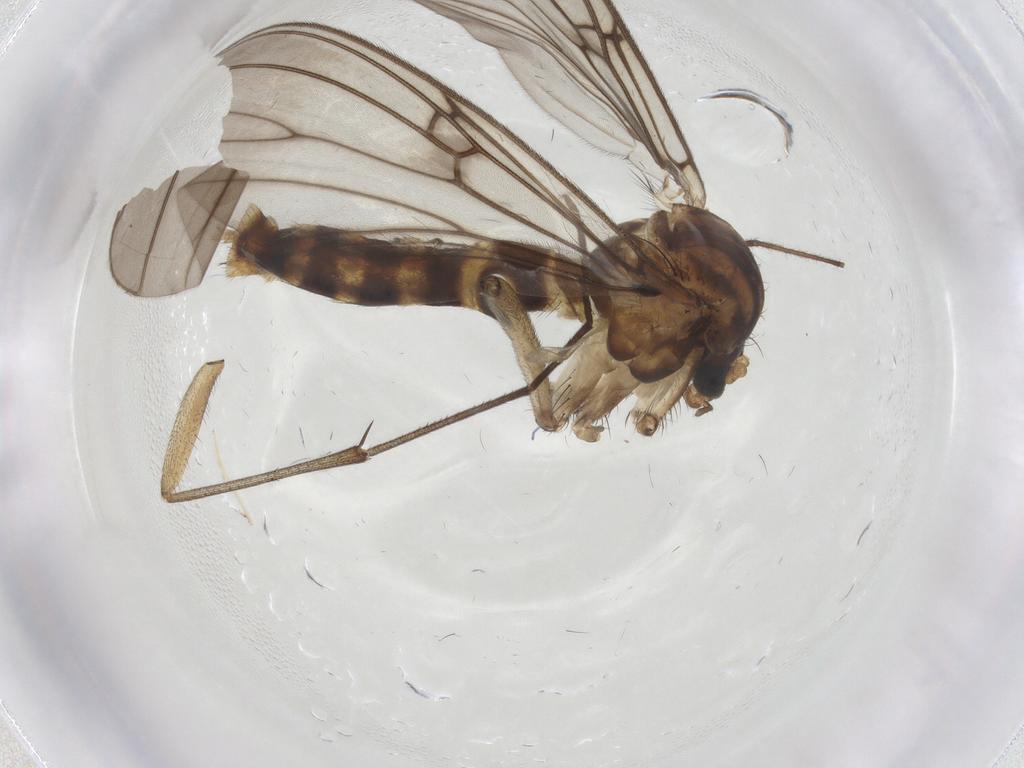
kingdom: Animalia
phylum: Arthropoda
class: Insecta
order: Diptera
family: Mycetophilidae
